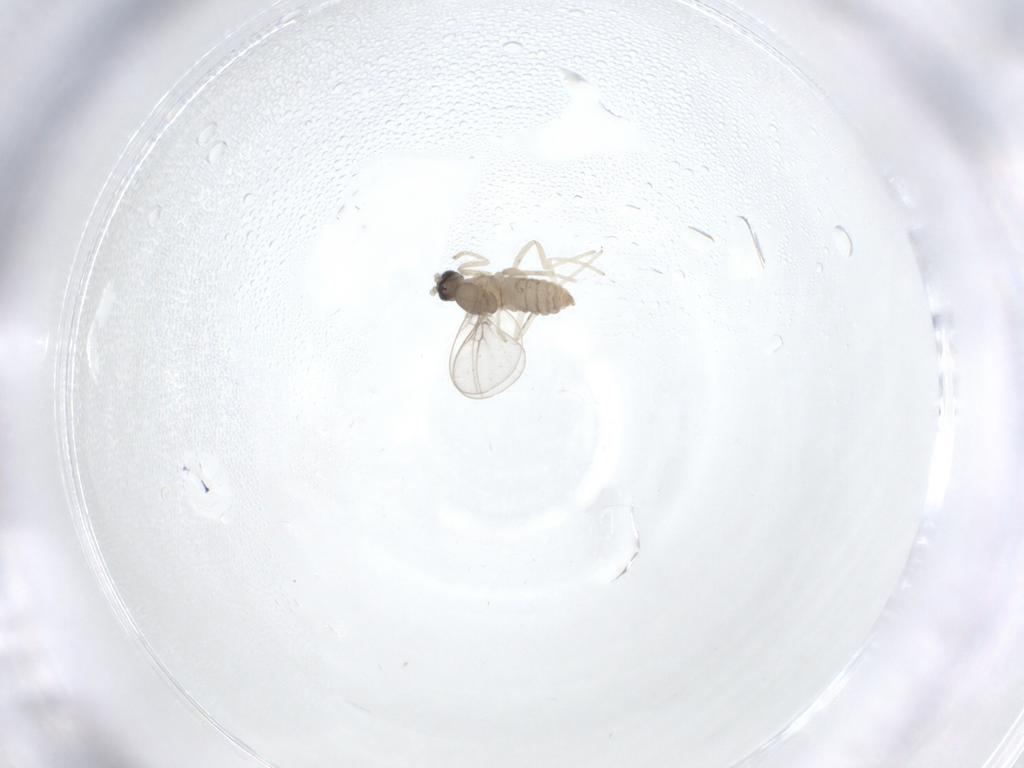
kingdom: Animalia
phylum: Arthropoda
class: Insecta
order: Diptera
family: Cecidomyiidae
